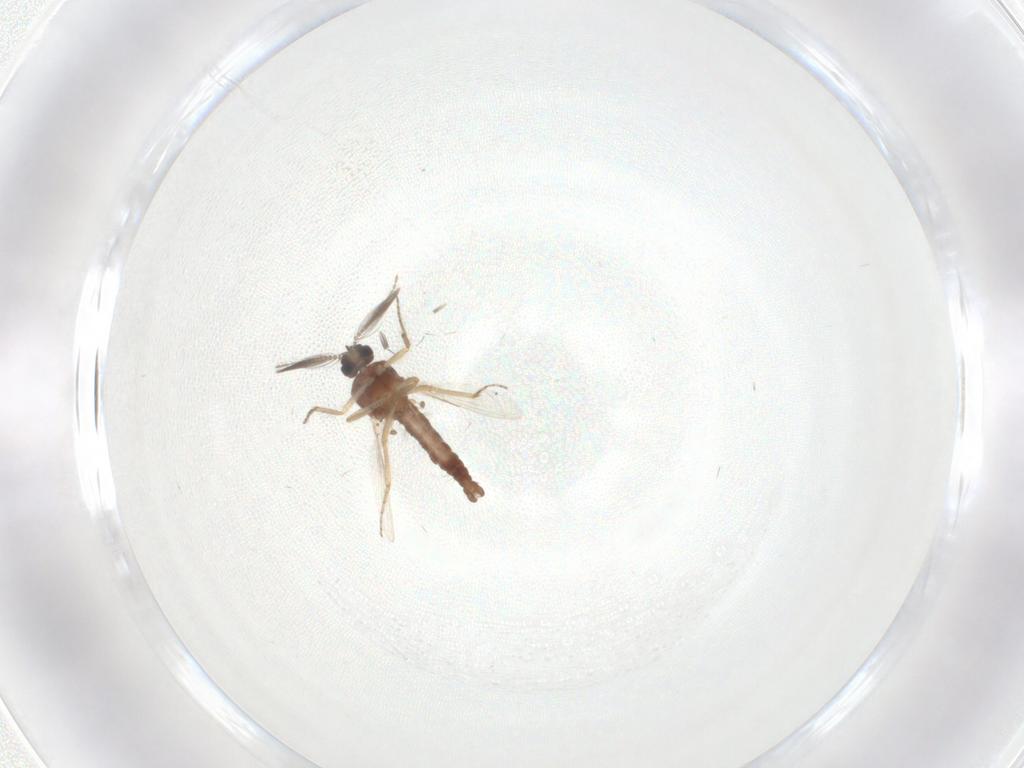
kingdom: Animalia
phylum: Arthropoda
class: Insecta
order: Diptera
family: Ceratopogonidae
